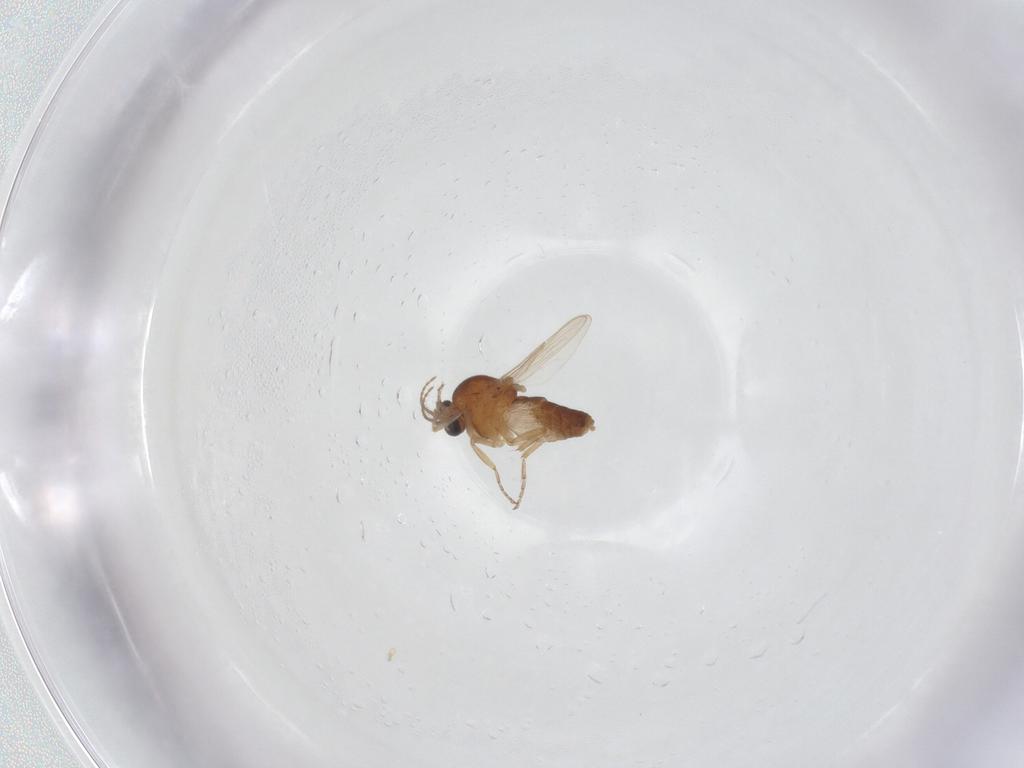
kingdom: Animalia
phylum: Arthropoda
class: Insecta
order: Diptera
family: Ceratopogonidae
